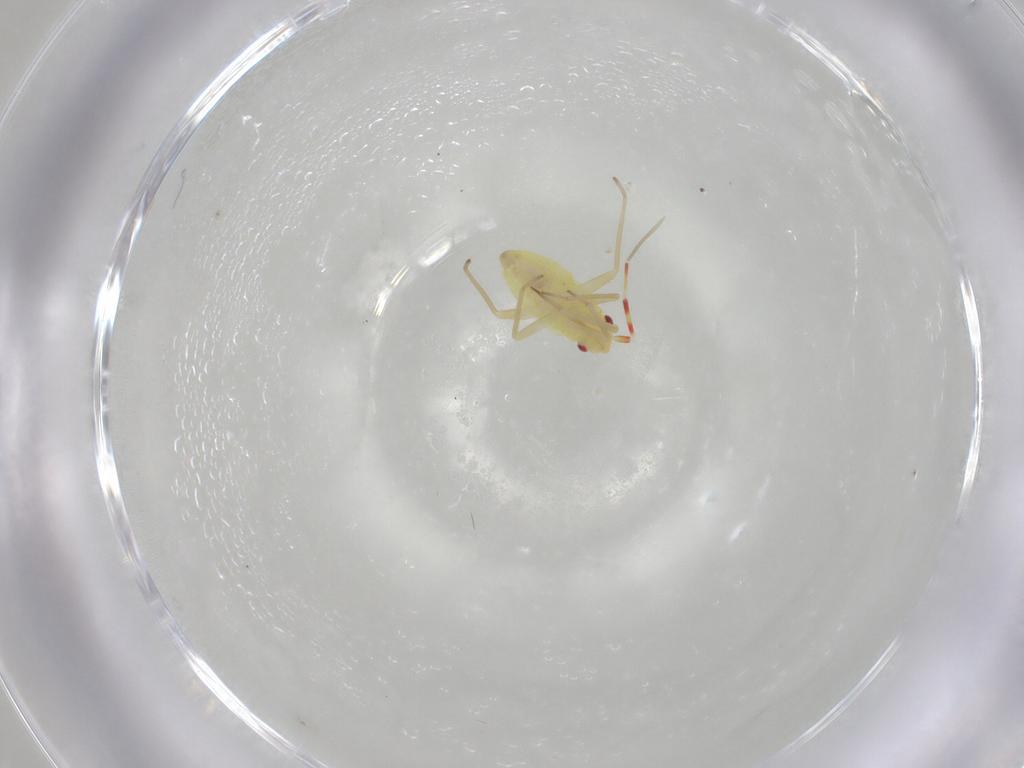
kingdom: Animalia
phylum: Arthropoda
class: Insecta
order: Hemiptera
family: Miridae
